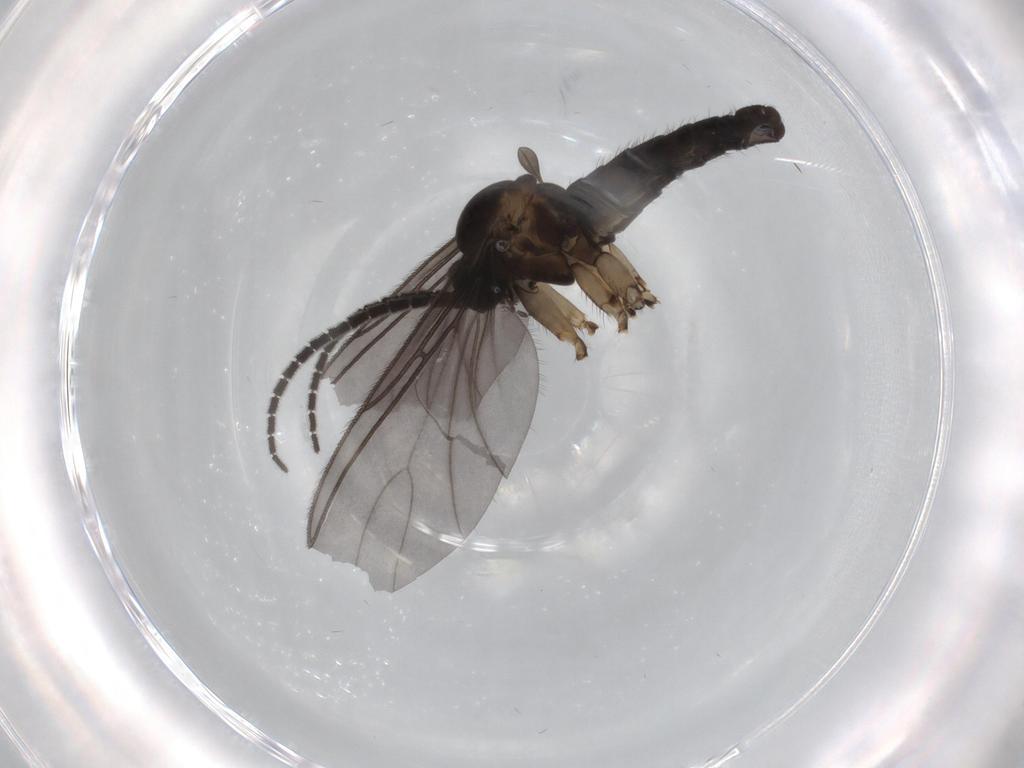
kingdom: Animalia
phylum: Arthropoda
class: Insecta
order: Diptera
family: Sciaridae
